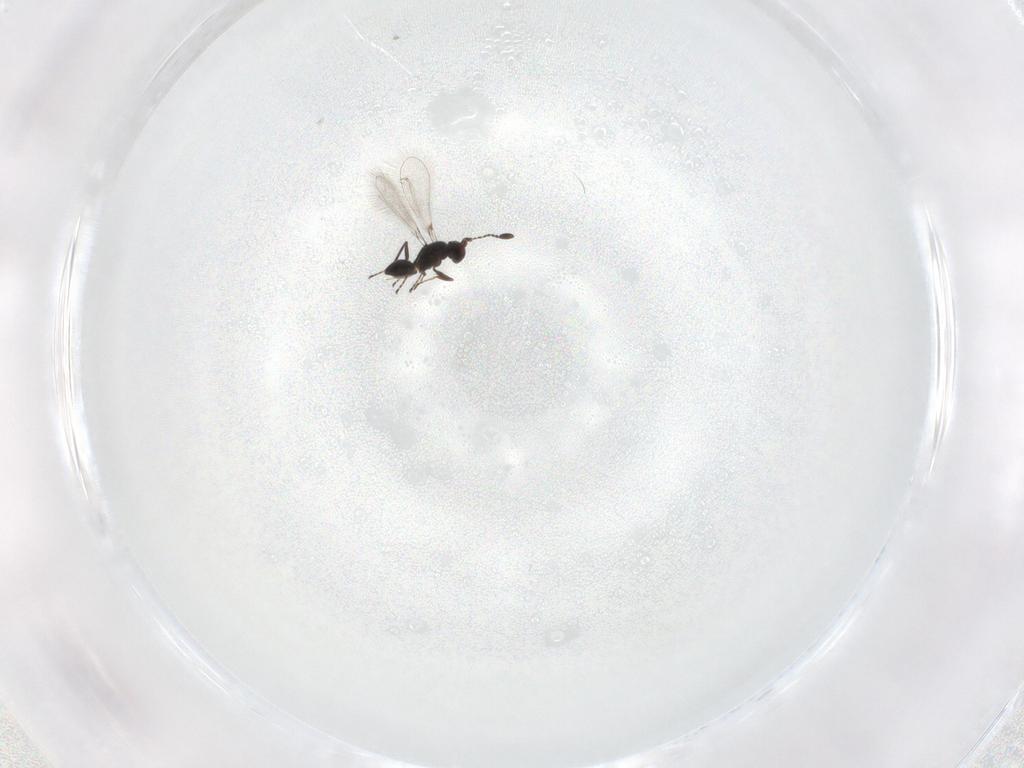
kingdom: Animalia
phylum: Arthropoda
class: Insecta
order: Hymenoptera
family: Mymaridae
